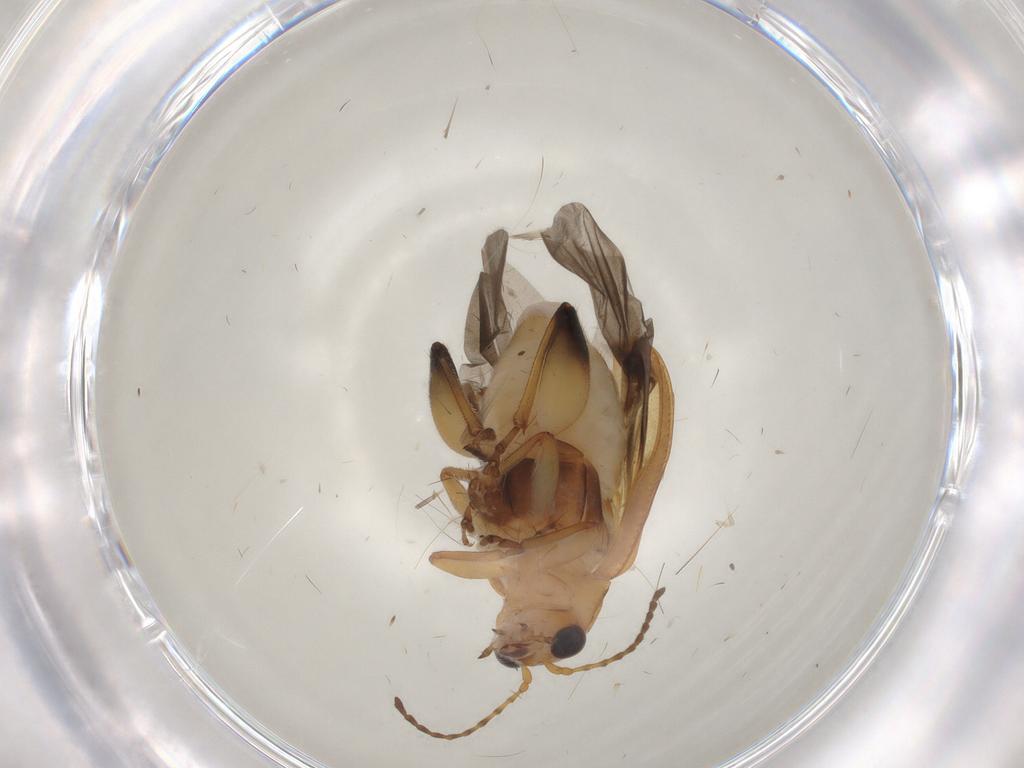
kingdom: Animalia
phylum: Arthropoda
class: Insecta
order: Coleoptera
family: Chrysomelidae
